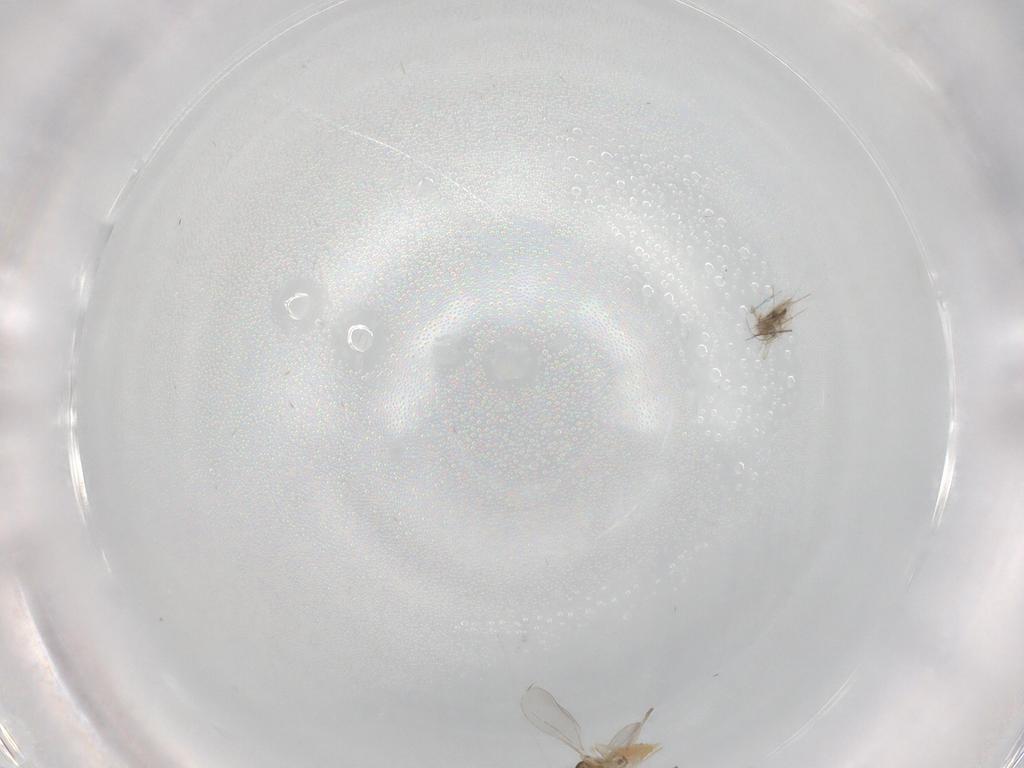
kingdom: Animalia
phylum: Arthropoda
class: Insecta
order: Diptera
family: Cecidomyiidae
